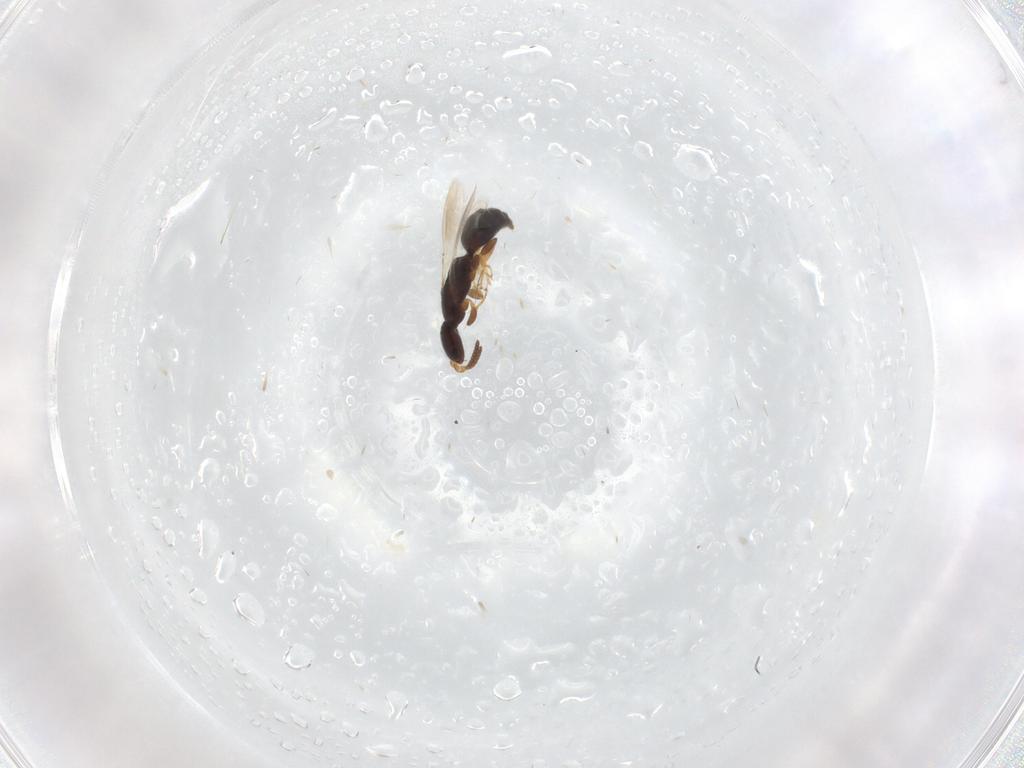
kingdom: Animalia
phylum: Arthropoda
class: Insecta
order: Hymenoptera
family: Bethylidae
